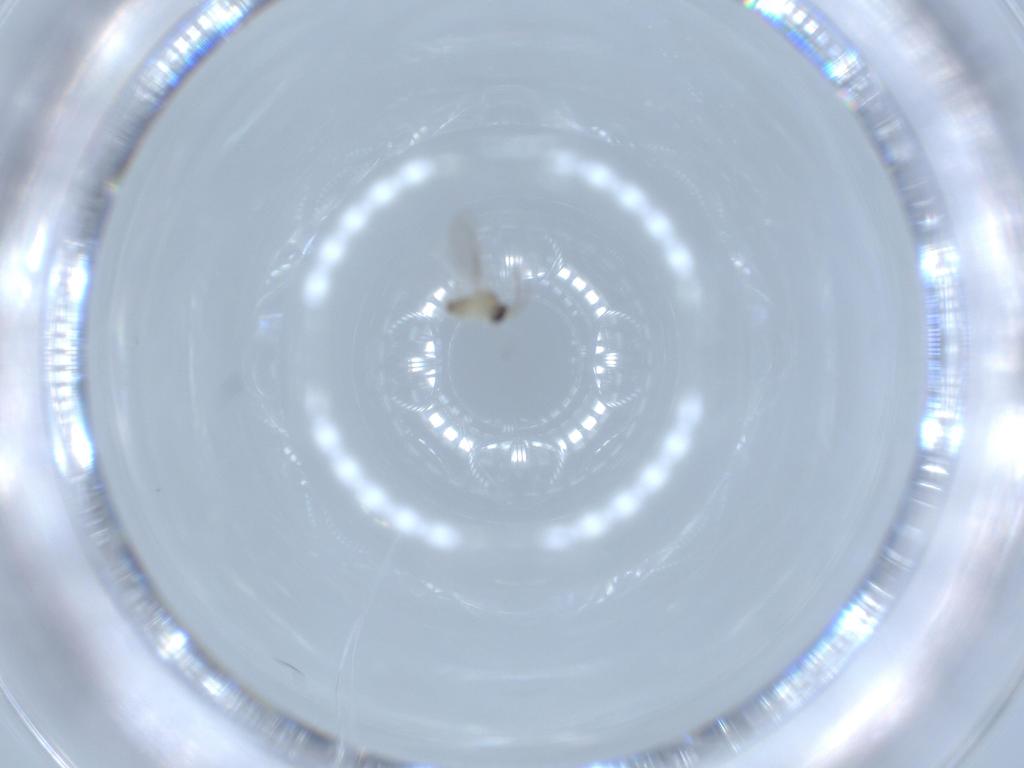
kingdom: Animalia
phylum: Arthropoda
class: Insecta
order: Diptera
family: Cecidomyiidae
